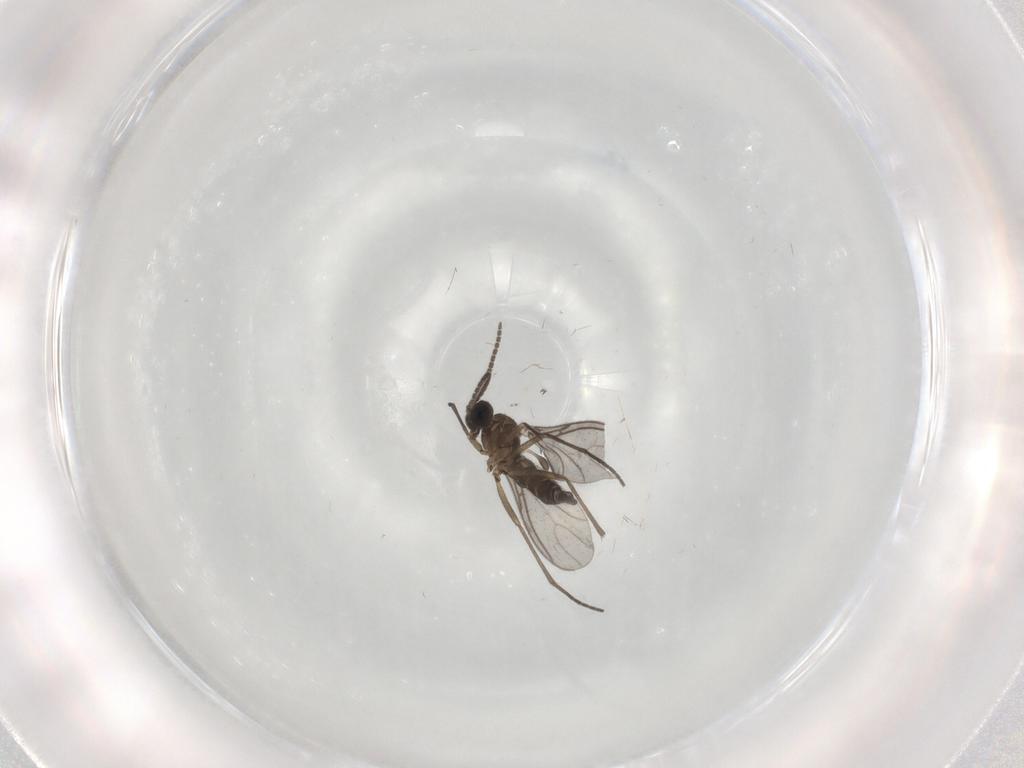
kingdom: Animalia
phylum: Arthropoda
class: Insecta
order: Diptera
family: Sciaridae
